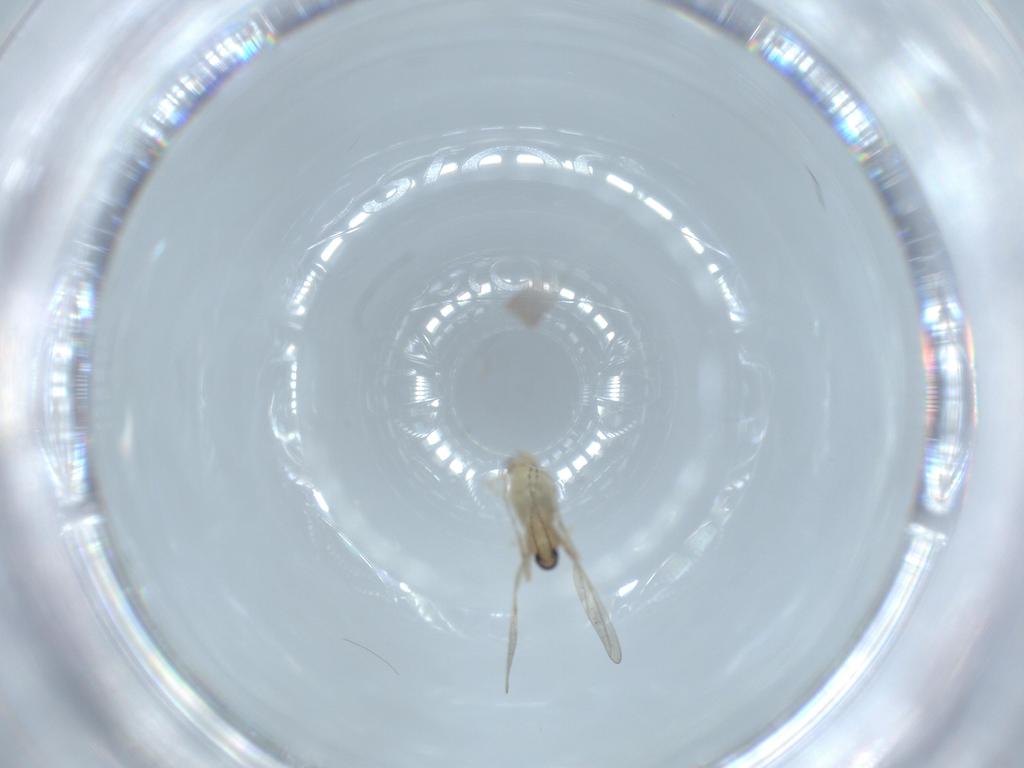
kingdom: Animalia
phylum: Arthropoda
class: Insecta
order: Diptera
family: Cecidomyiidae
